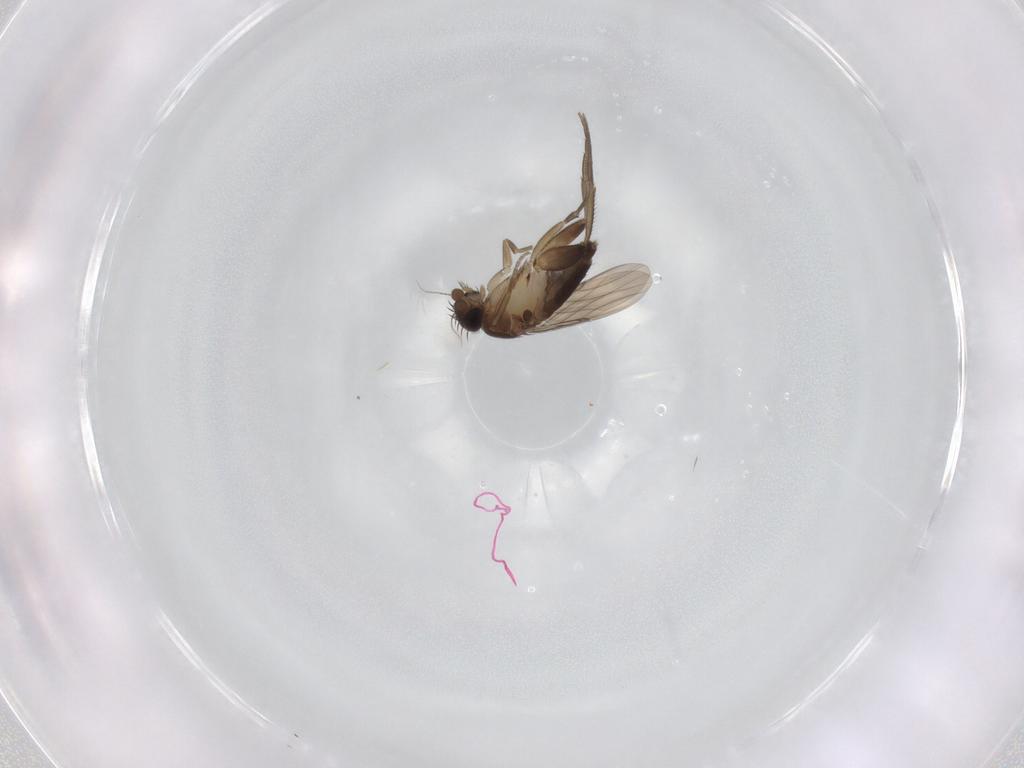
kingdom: Animalia
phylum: Arthropoda
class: Insecta
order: Diptera
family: Phoridae
